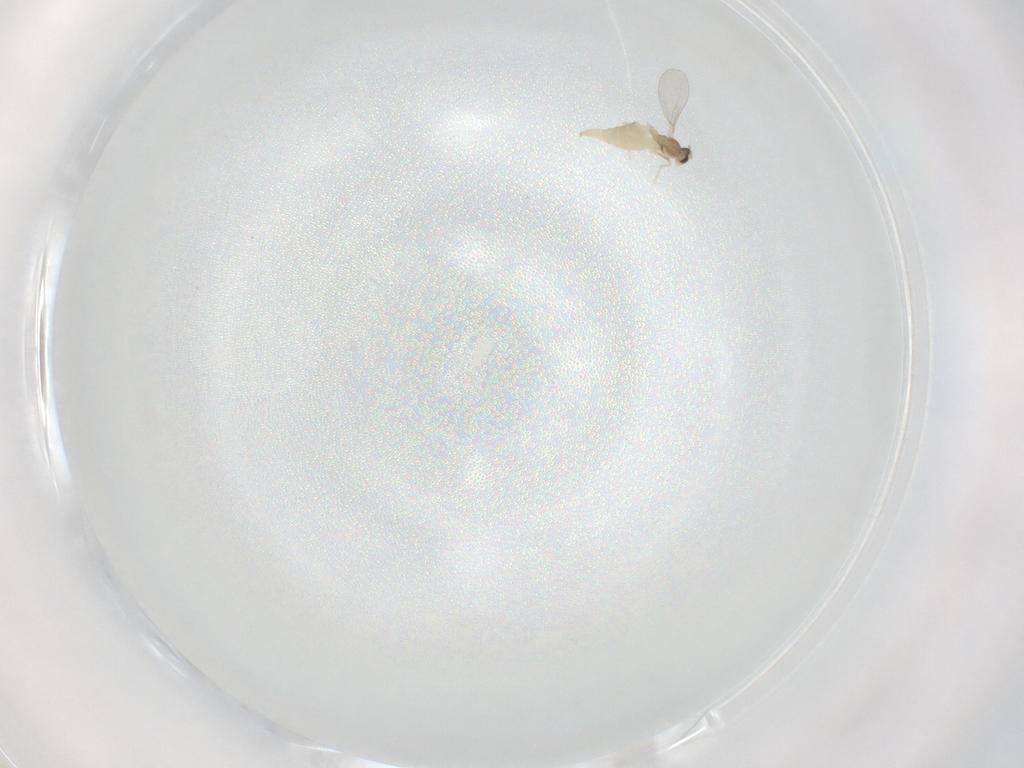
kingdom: Animalia
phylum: Arthropoda
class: Insecta
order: Diptera
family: Cecidomyiidae
